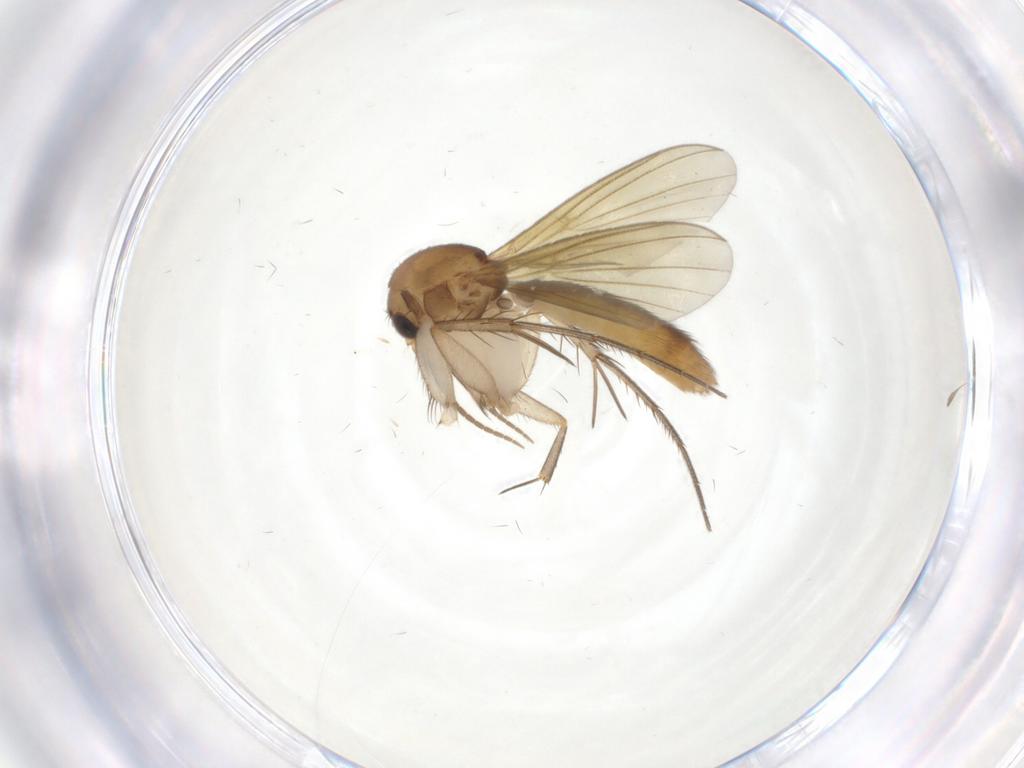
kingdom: Animalia
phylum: Arthropoda
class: Insecta
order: Diptera
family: Mycetophilidae
